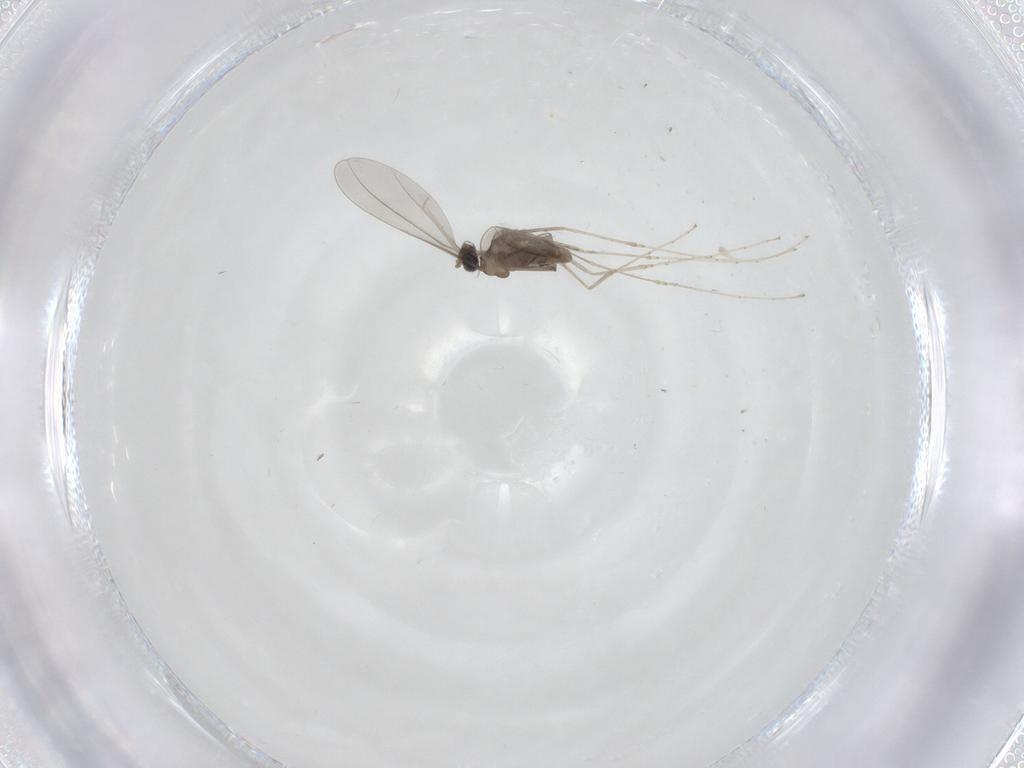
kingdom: Animalia
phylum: Arthropoda
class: Insecta
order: Diptera
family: Cecidomyiidae
